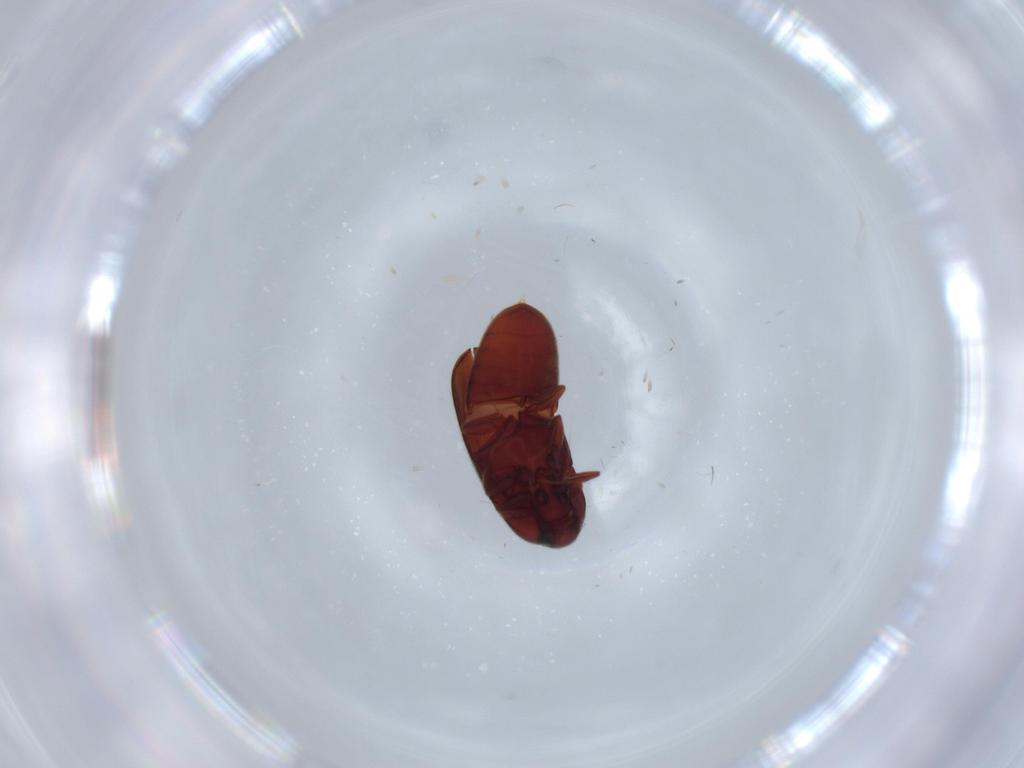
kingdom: Animalia
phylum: Arthropoda
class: Insecta
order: Coleoptera
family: Throscidae
